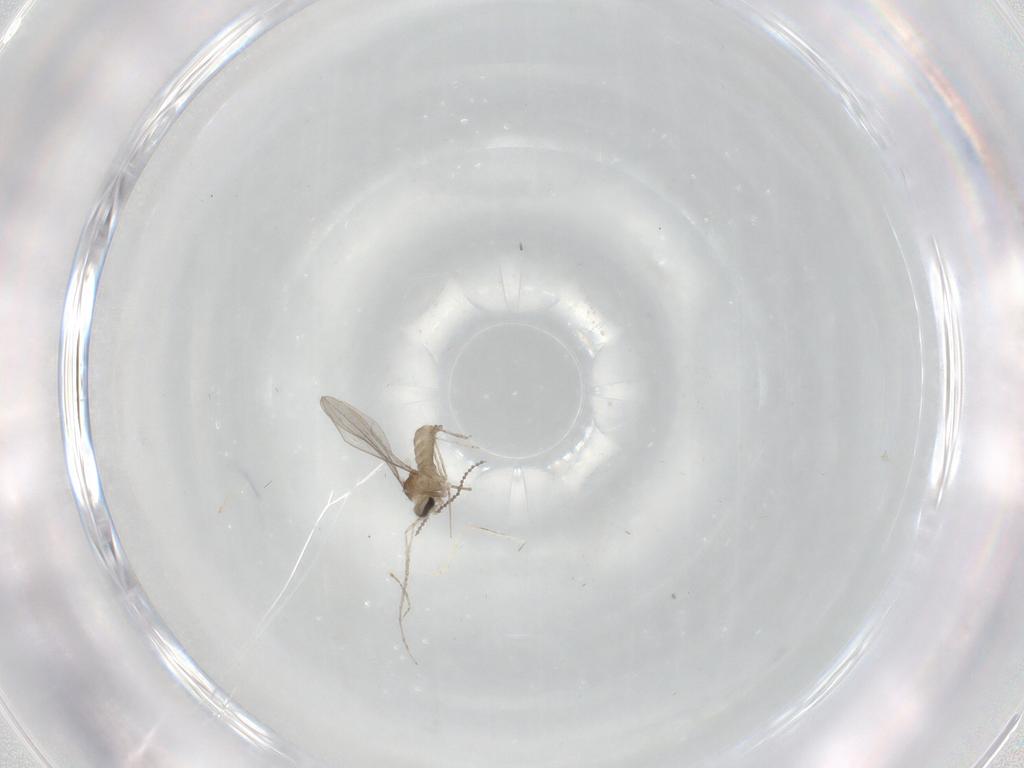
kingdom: Animalia
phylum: Arthropoda
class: Insecta
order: Diptera
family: Cecidomyiidae
